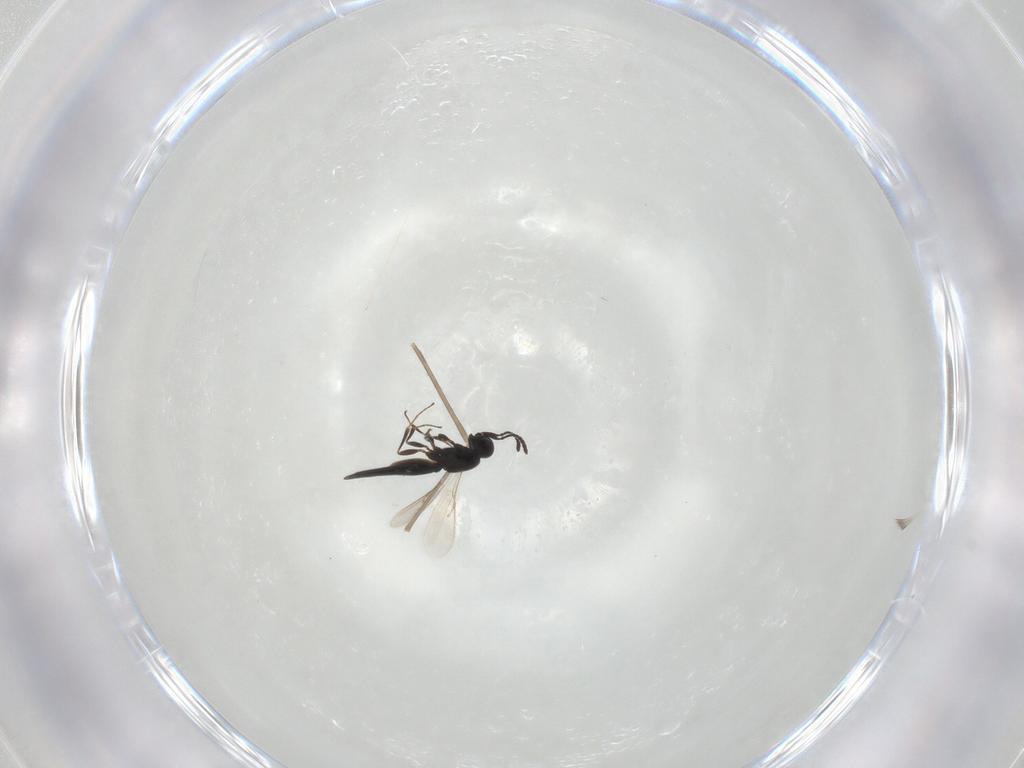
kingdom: Animalia
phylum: Arthropoda
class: Insecta
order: Hymenoptera
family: Scelionidae
